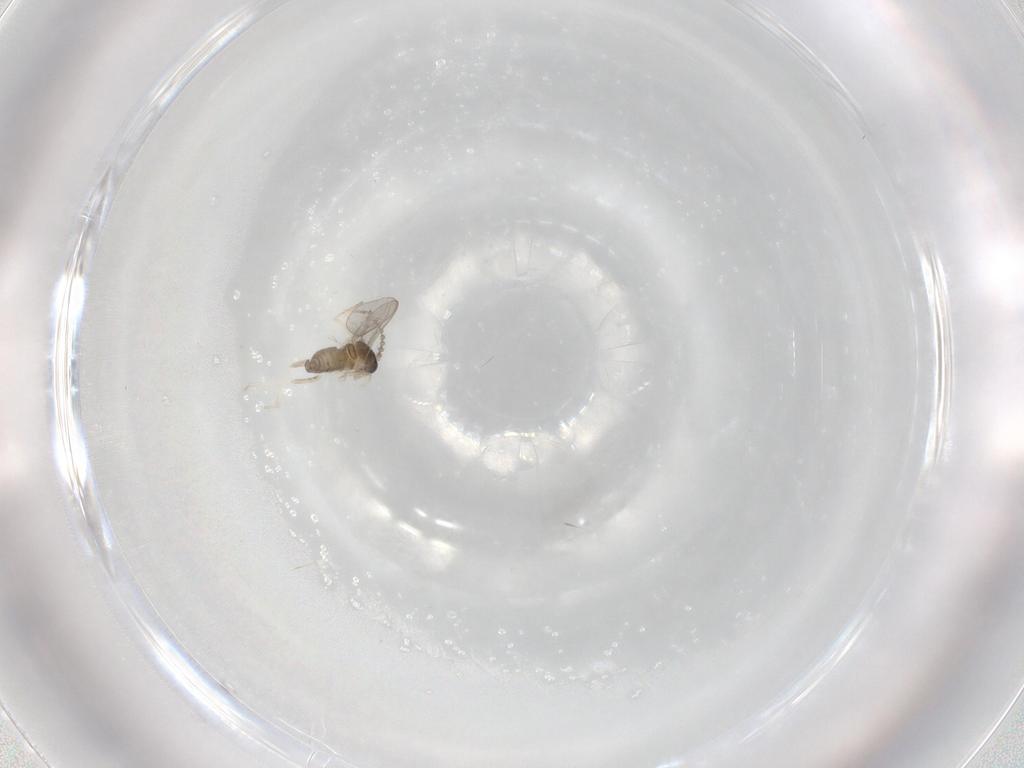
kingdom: Animalia
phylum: Arthropoda
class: Insecta
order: Diptera
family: Cecidomyiidae
